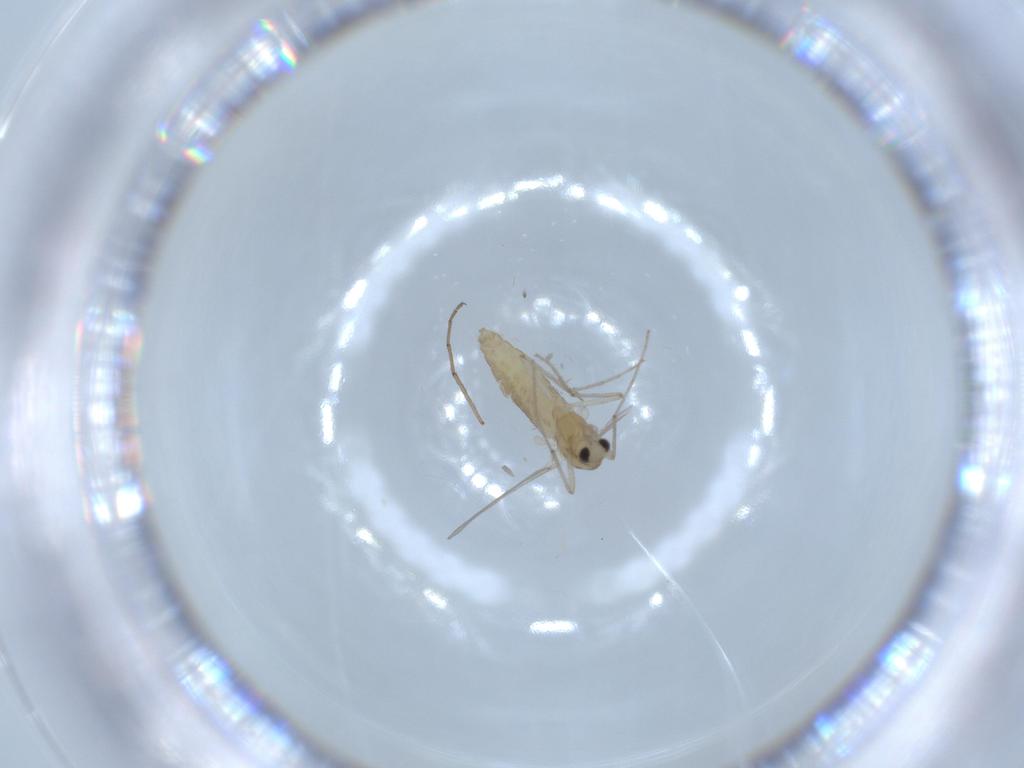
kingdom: Animalia
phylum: Arthropoda
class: Insecta
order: Diptera
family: Chironomidae
